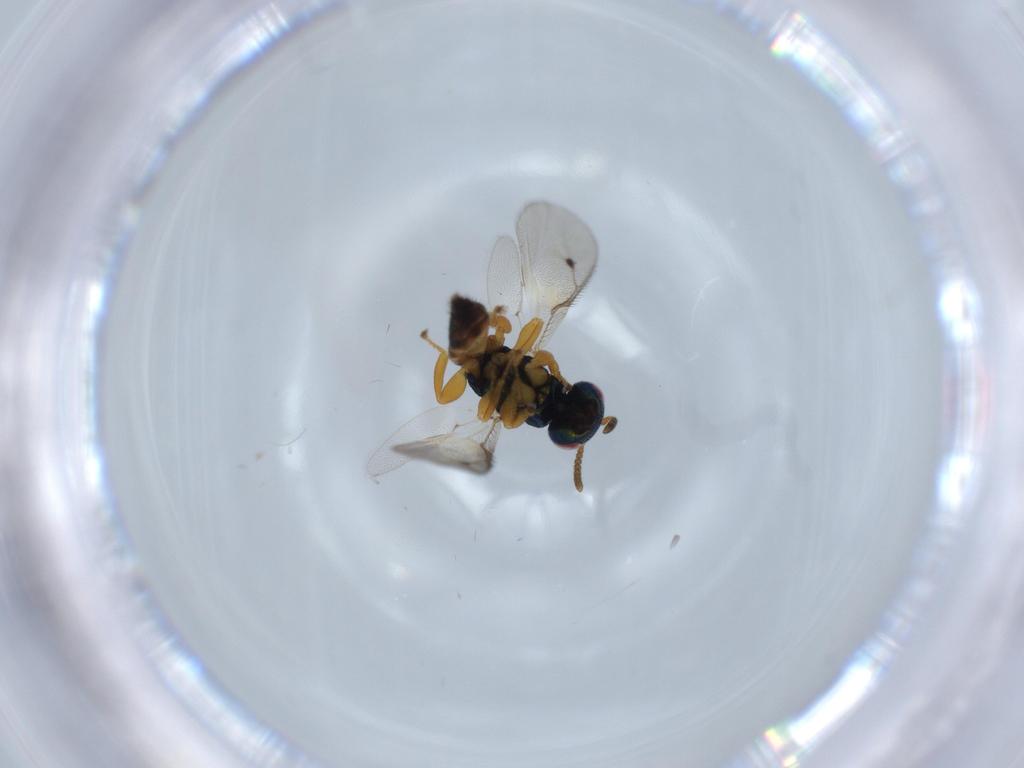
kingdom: Animalia
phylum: Arthropoda
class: Insecta
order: Hymenoptera
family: Pteromalidae
